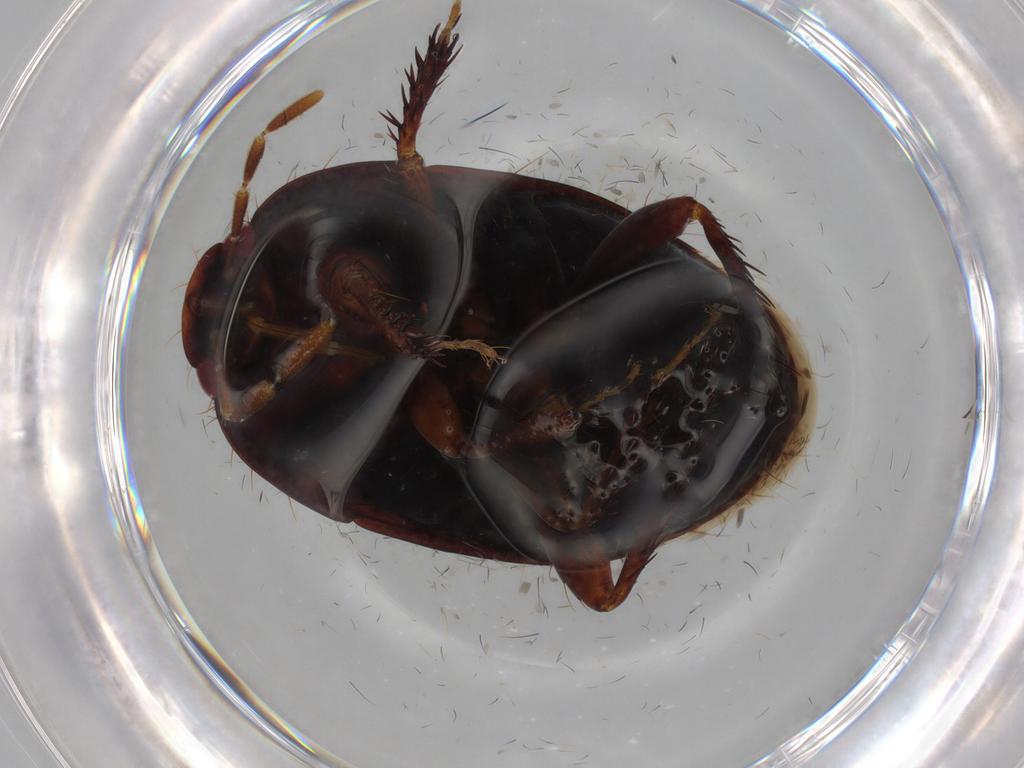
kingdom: Animalia
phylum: Arthropoda
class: Insecta
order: Hemiptera
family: Cydnidae
